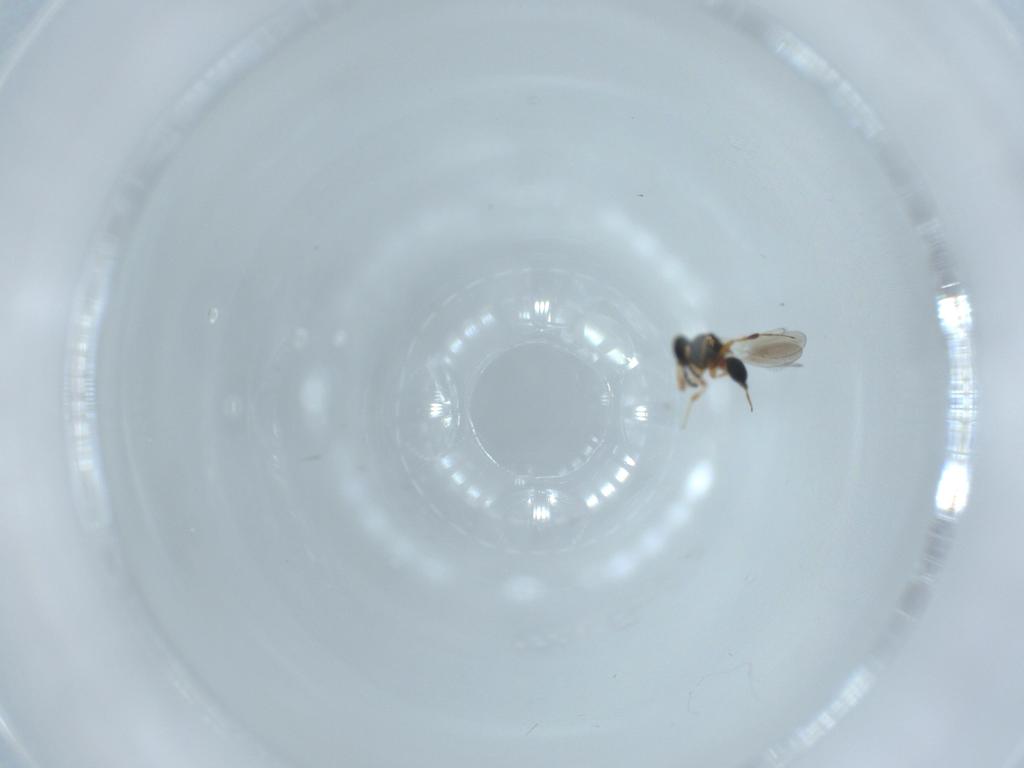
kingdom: Animalia
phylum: Arthropoda
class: Insecta
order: Hymenoptera
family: Platygastridae
